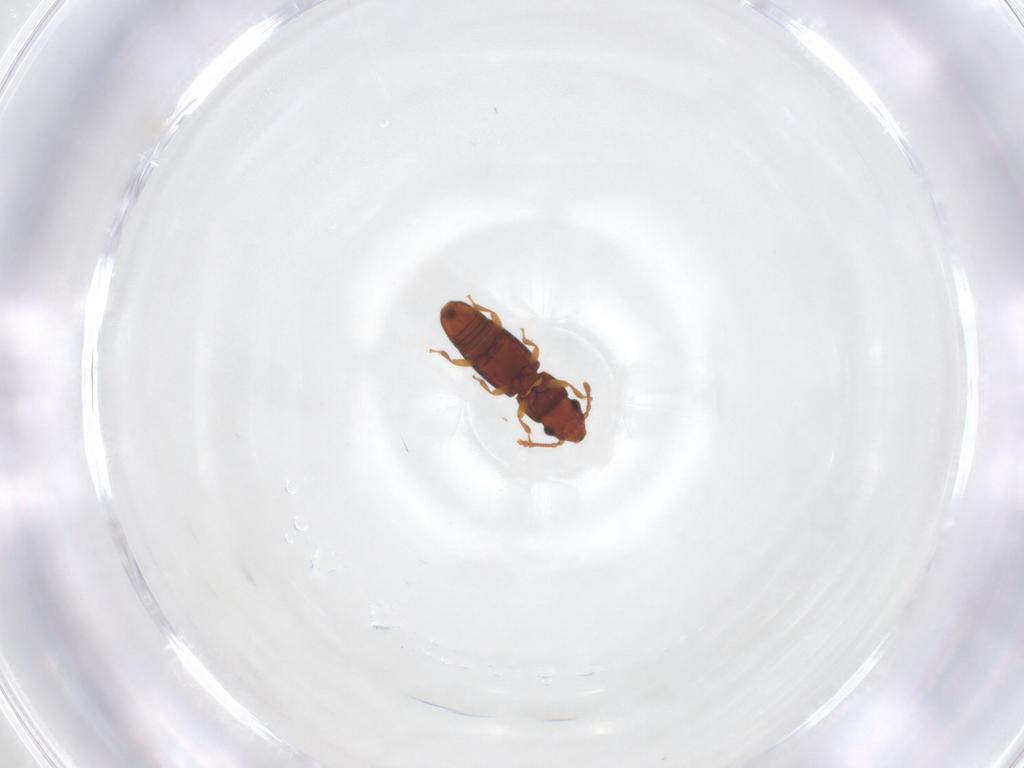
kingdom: Animalia
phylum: Arthropoda
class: Insecta
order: Coleoptera
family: Smicripidae
